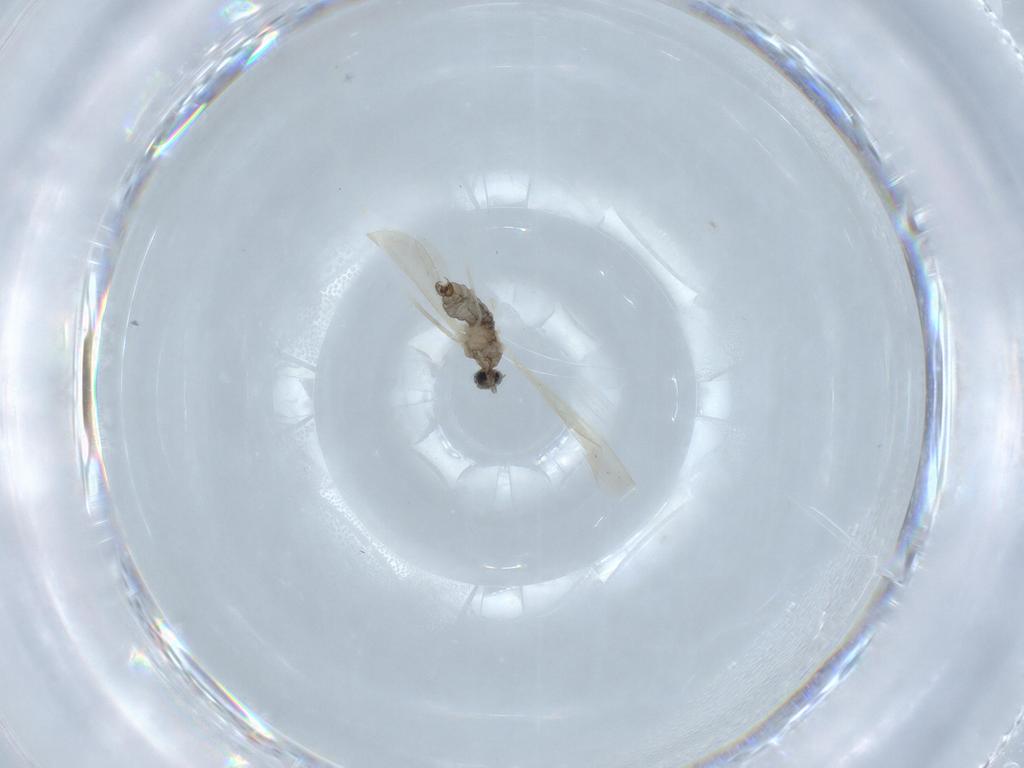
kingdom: Animalia
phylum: Arthropoda
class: Insecta
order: Diptera
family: Cecidomyiidae
